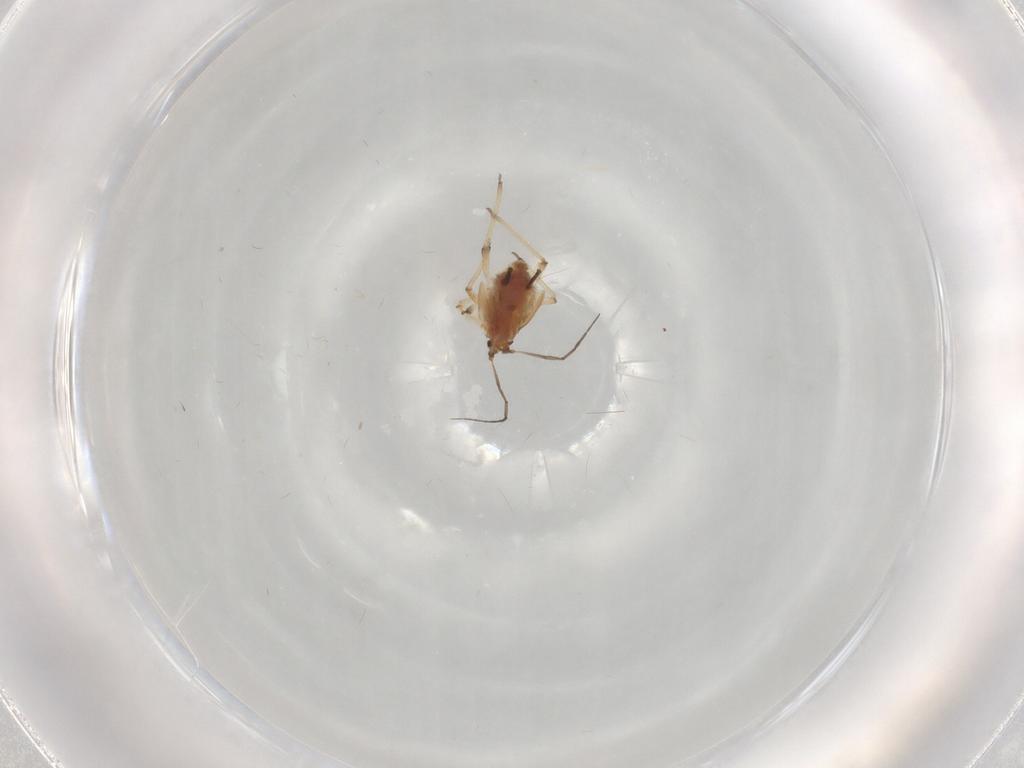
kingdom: Animalia
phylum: Arthropoda
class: Insecta
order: Hemiptera
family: Aphididae
